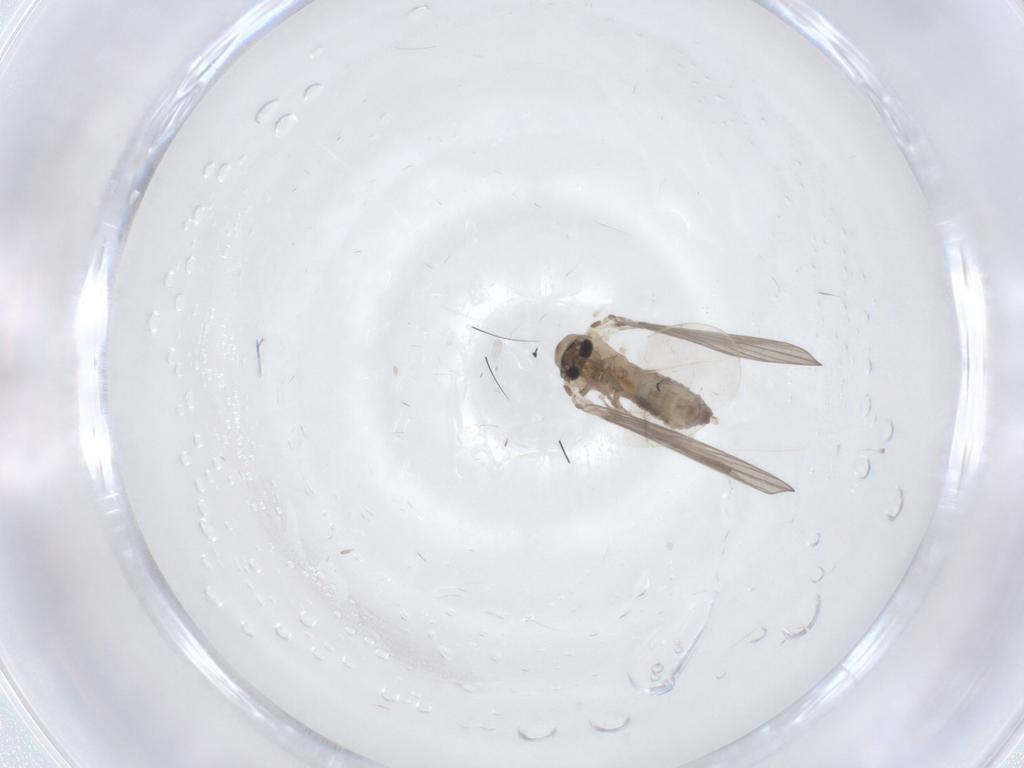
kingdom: Animalia
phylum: Arthropoda
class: Insecta
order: Diptera
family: Psychodidae
